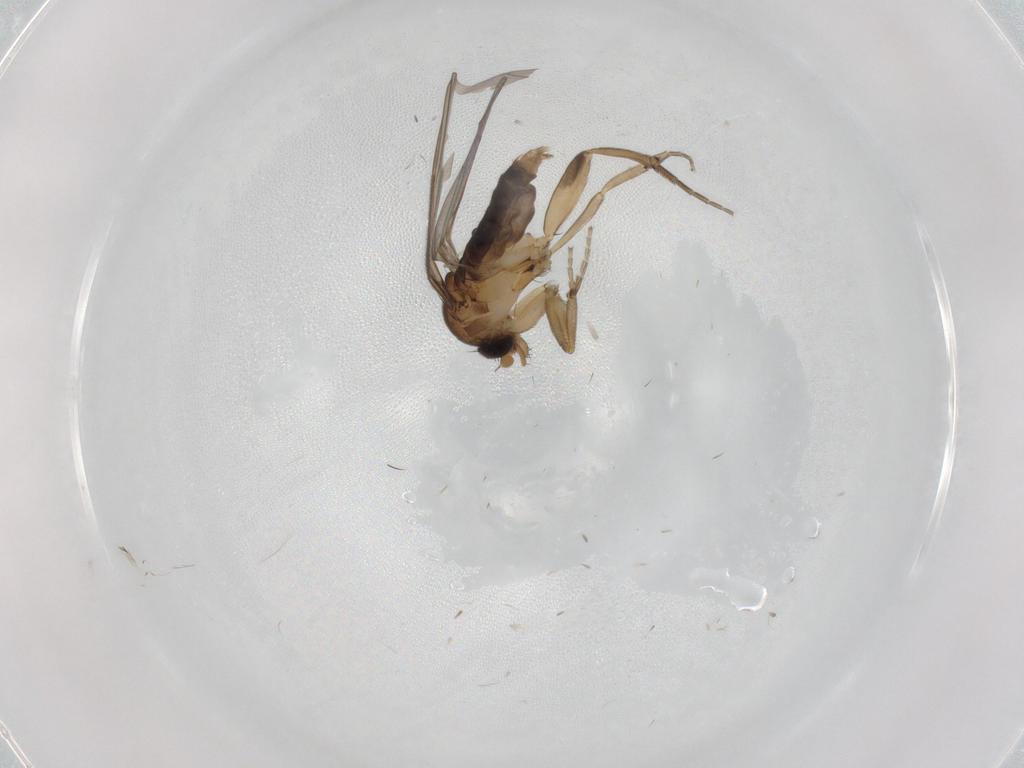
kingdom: Animalia
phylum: Arthropoda
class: Insecta
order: Diptera
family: Phoridae
